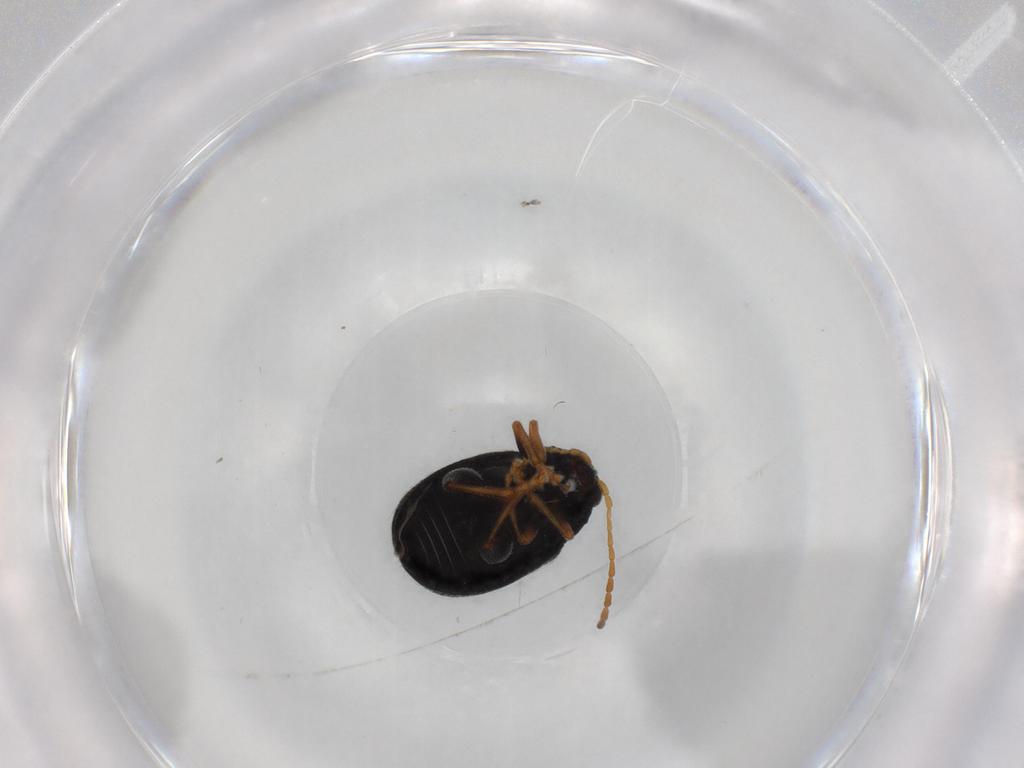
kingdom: Animalia
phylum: Arthropoda
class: Insecta
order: Coleoptera
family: Chrysomelidae
